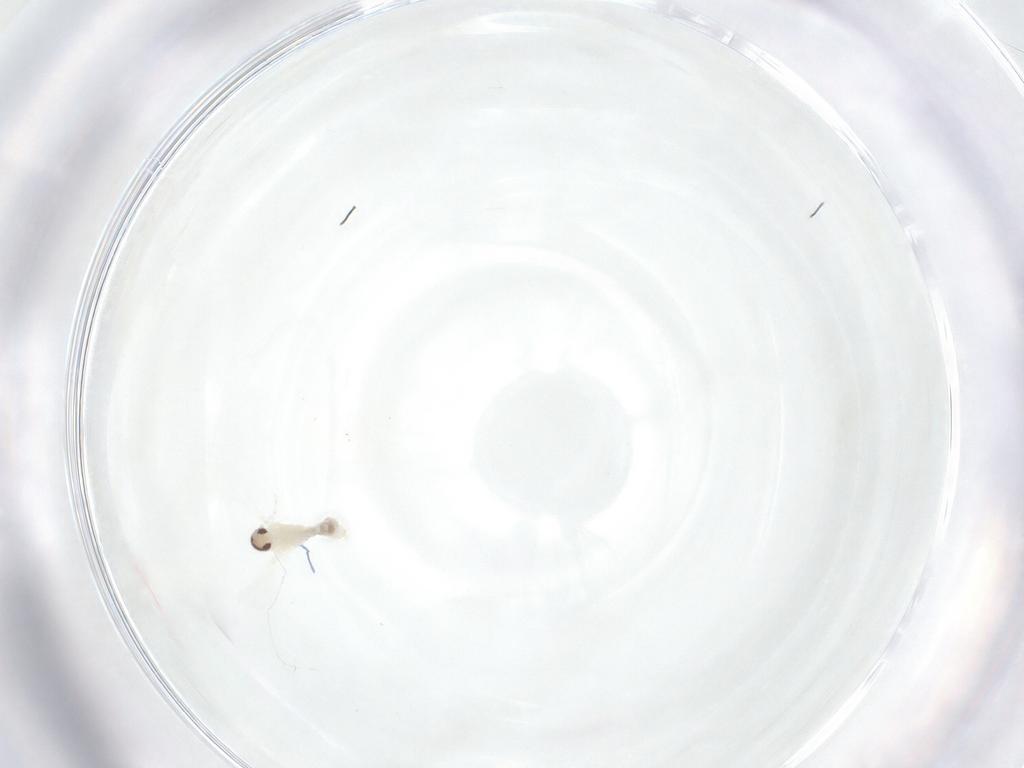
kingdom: Animalia
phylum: Arthropoda
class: Insecta
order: Diptera
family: Cecidomyiidae
